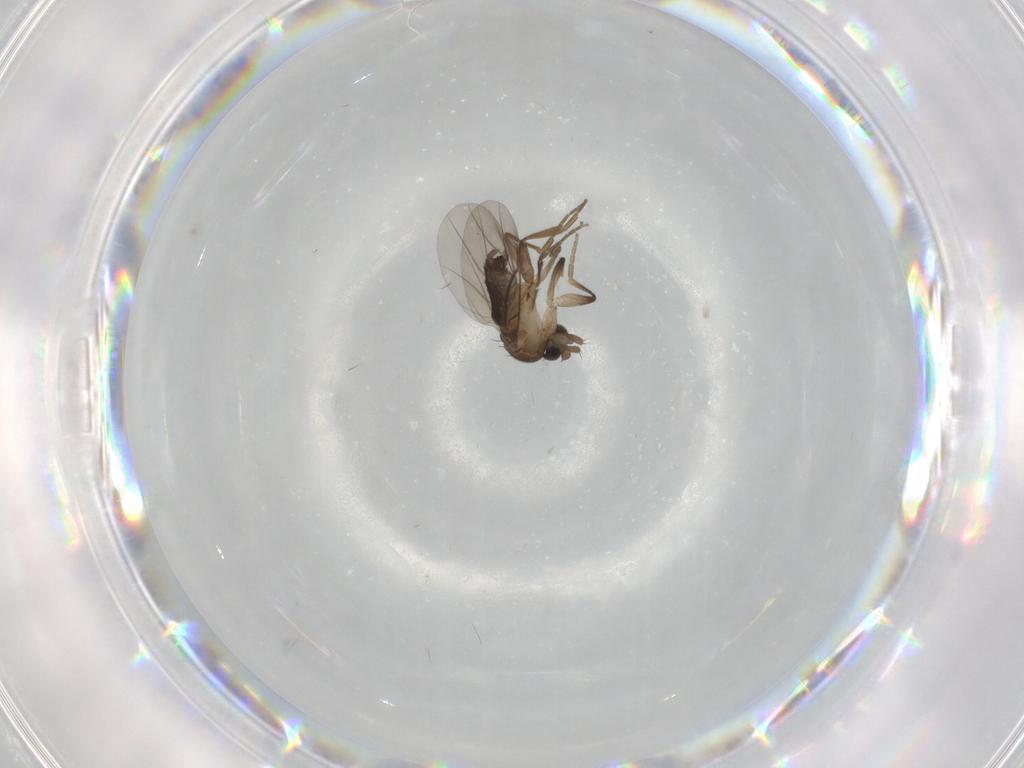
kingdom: Animalia
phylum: Arthropoda
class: Insecta
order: Diptera
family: Phoridae
